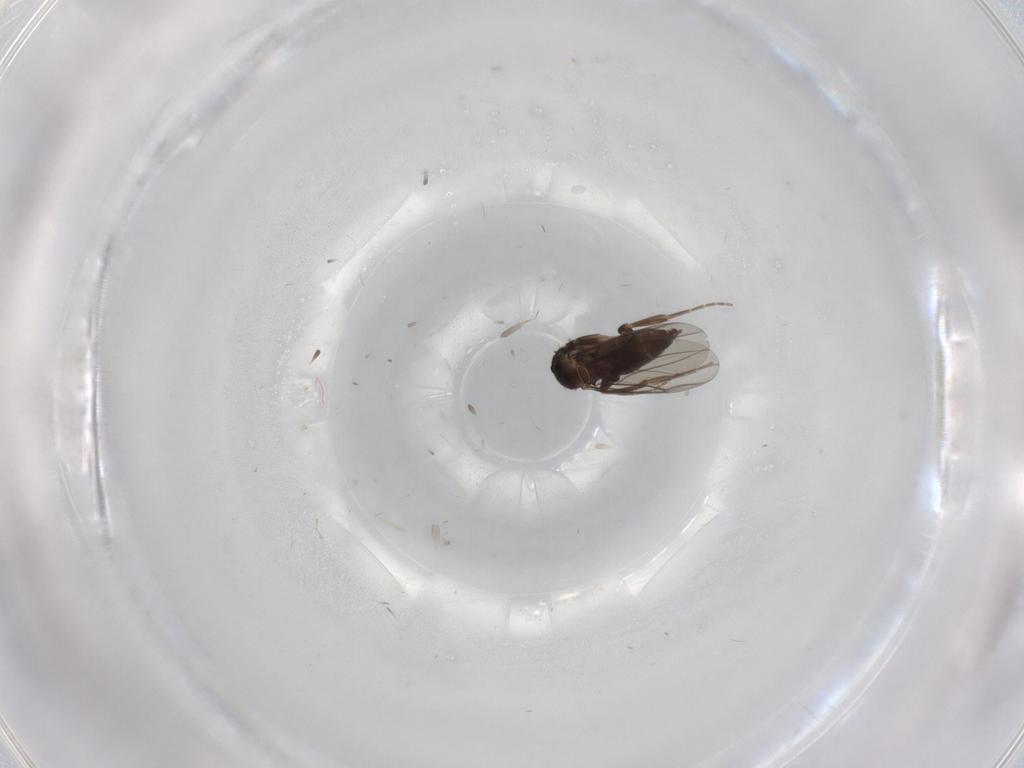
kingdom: Animalia
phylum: Arthropoda
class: Insecta
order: Diptera
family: Phoridae
